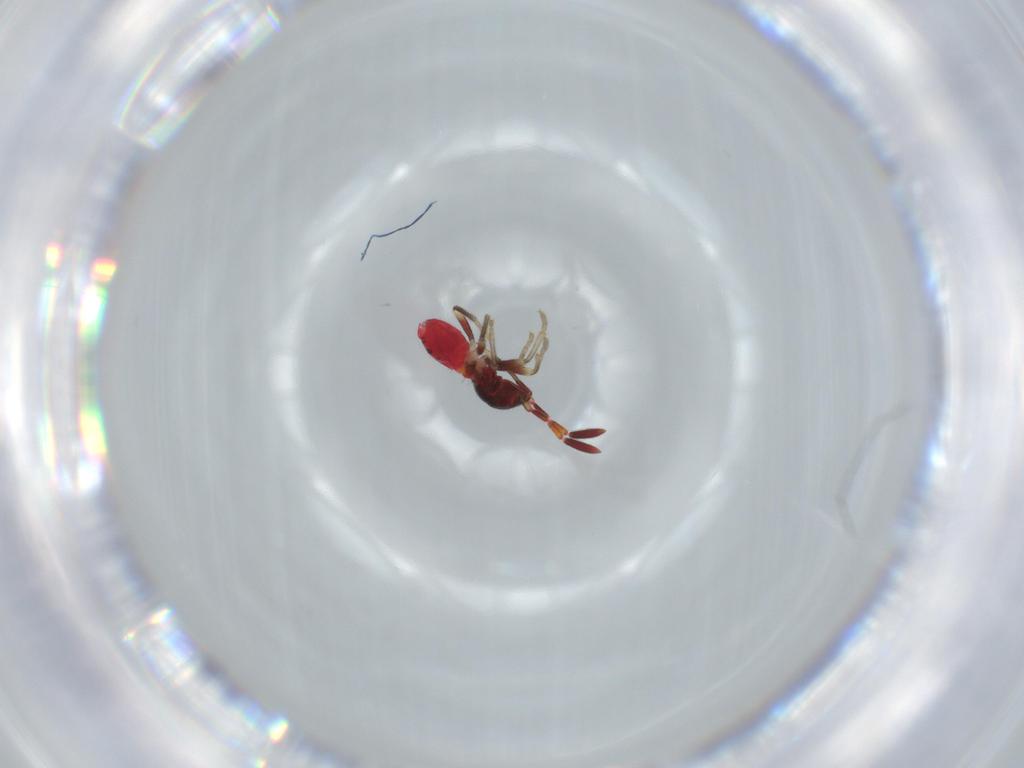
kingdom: Animalia
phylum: Arthropoda
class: Insecta
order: Hemiptera
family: Rhyparochromidae
